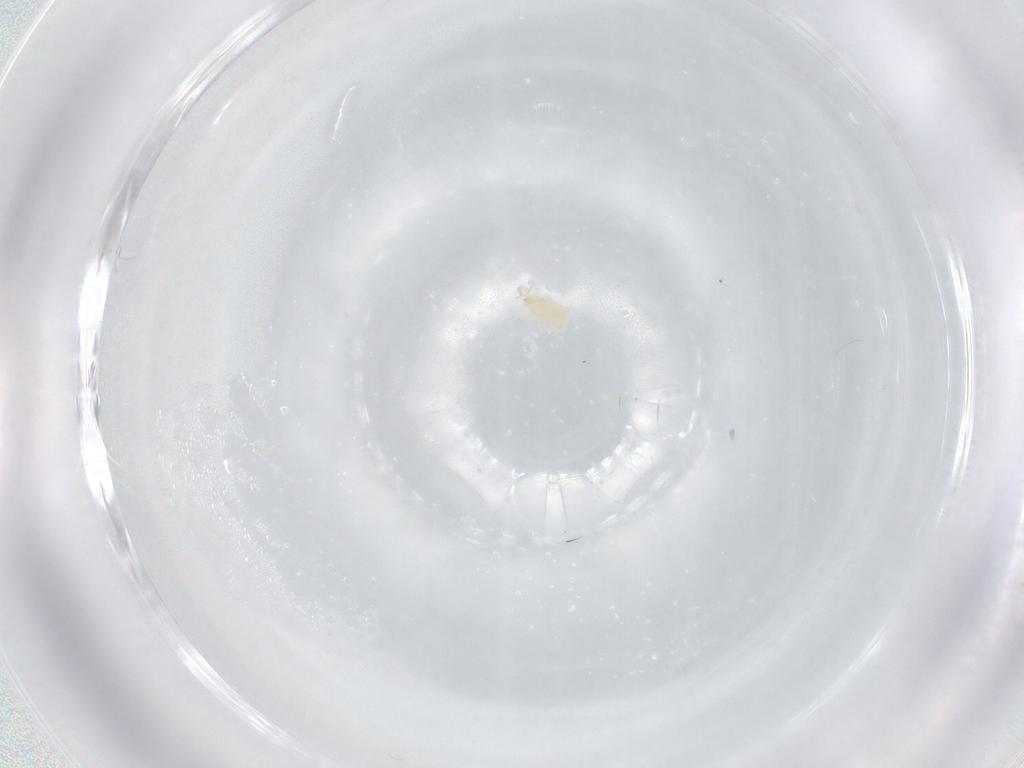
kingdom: Animalia
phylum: Arthropoda
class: Arachnida
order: Mesostigmata
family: Phytoseiidae
